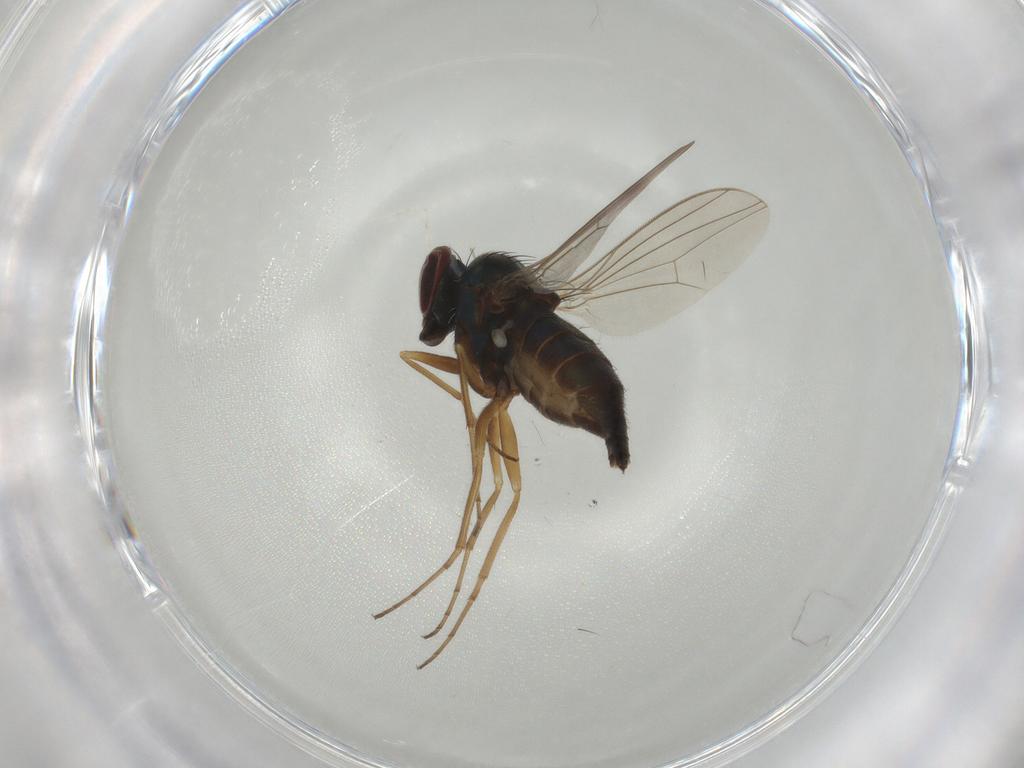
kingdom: Animalia
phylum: Arthropoda
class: Insecta
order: Diptera
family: Dolichopodidae
